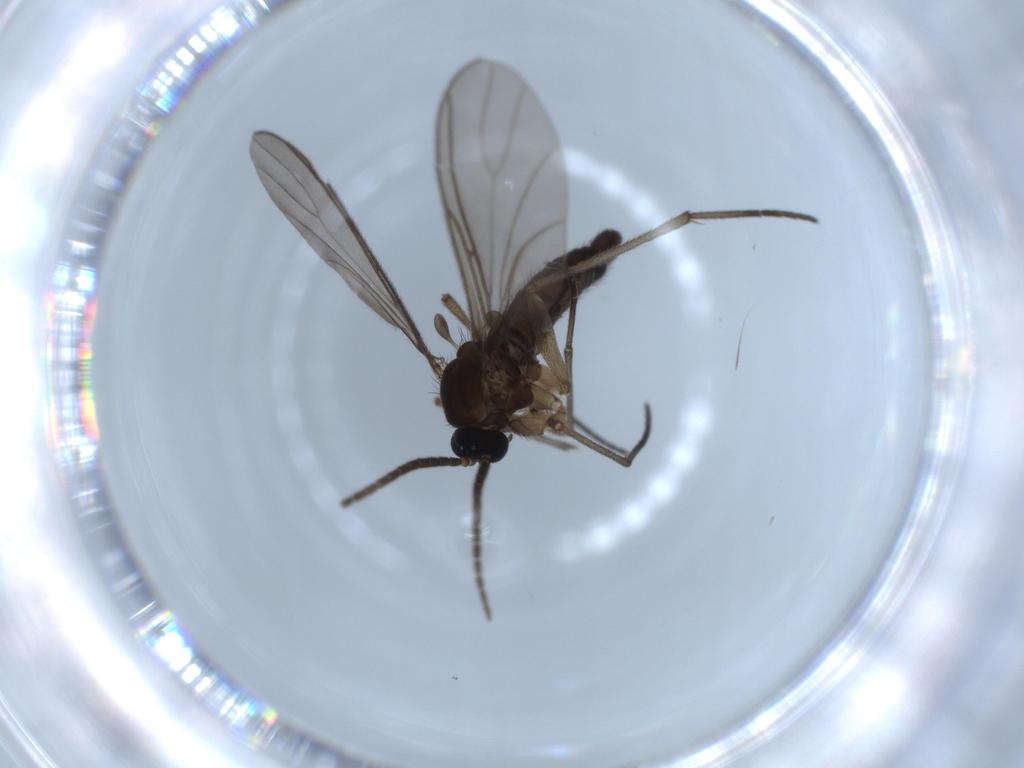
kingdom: Animalia
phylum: Arthropoda
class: Insecta
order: Diptera
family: Sciaridae
